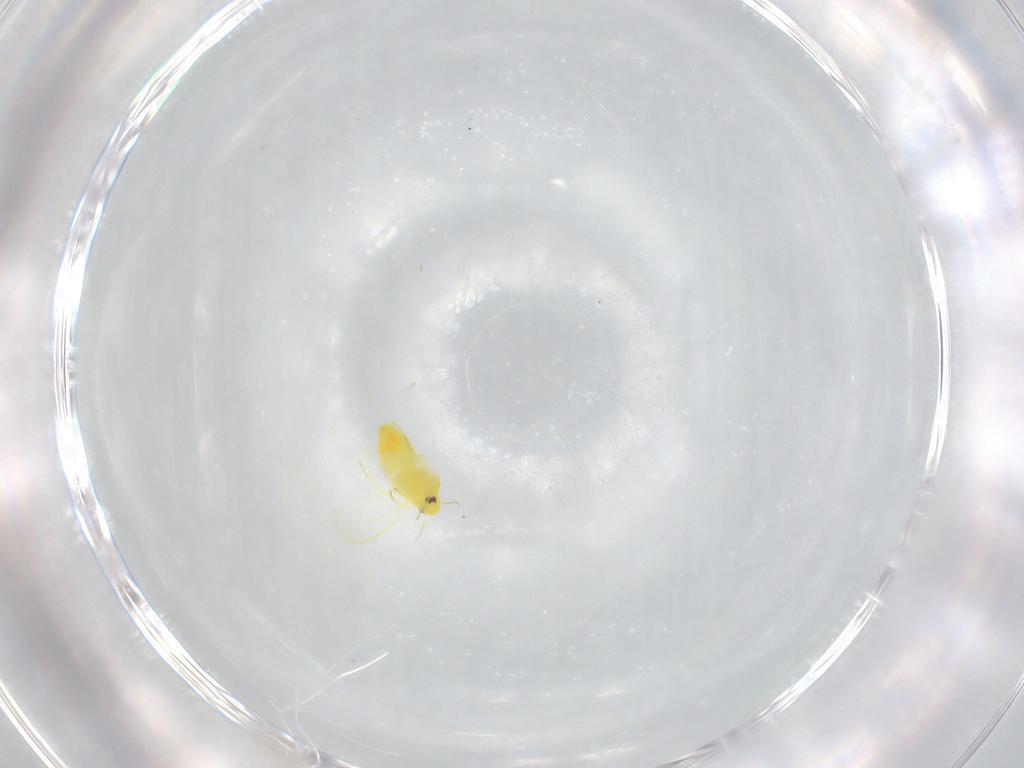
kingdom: Animalia
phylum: Arthropoda
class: Insecta
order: Hemiptera
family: Aleyrodidae
